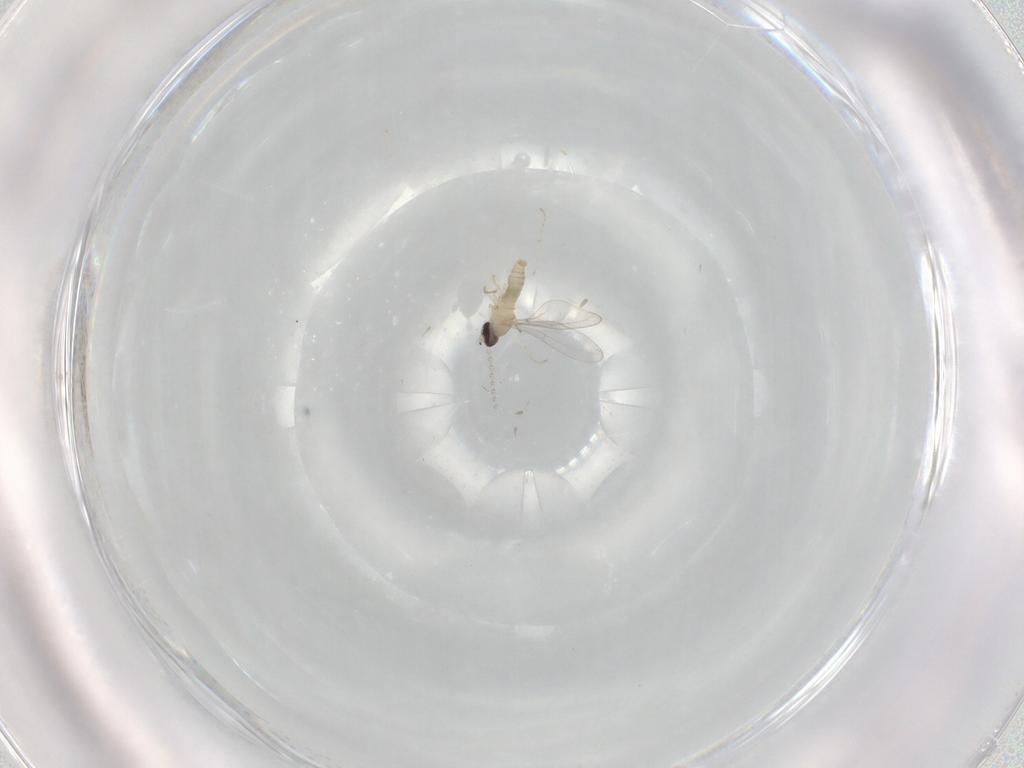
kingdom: Animalia
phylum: Arthropoda
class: Insecta
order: Diptera
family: Cecidomyiidae
